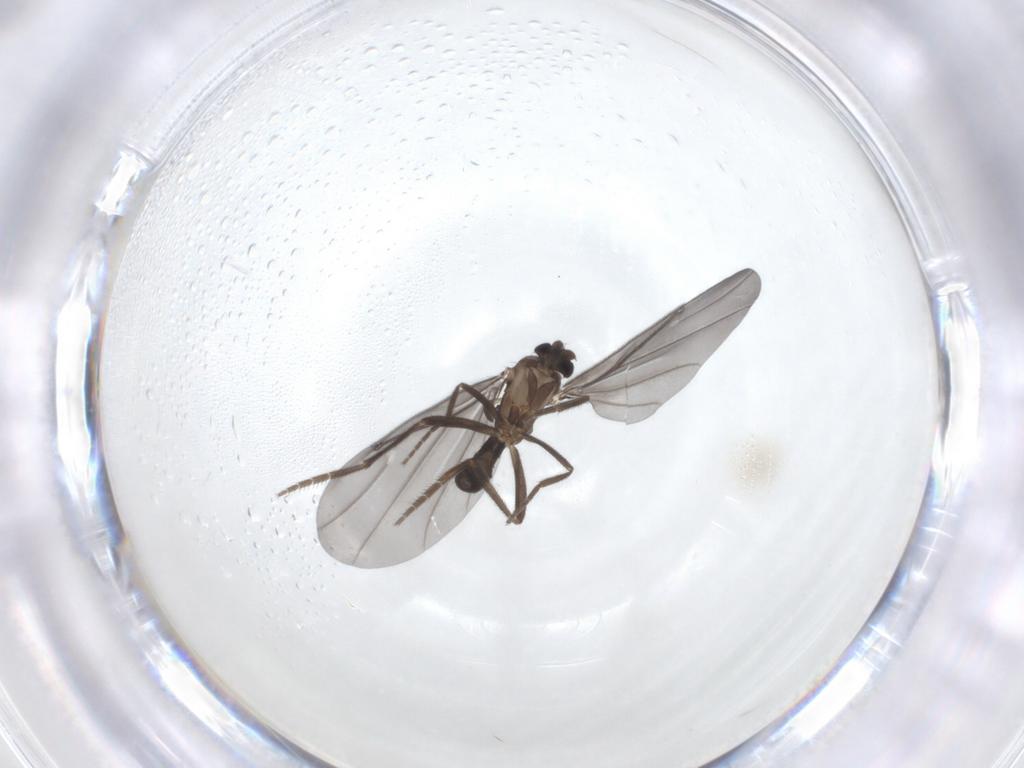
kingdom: Animalia
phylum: Arthropoda
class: Insecta
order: Diptera
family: Phoridae
